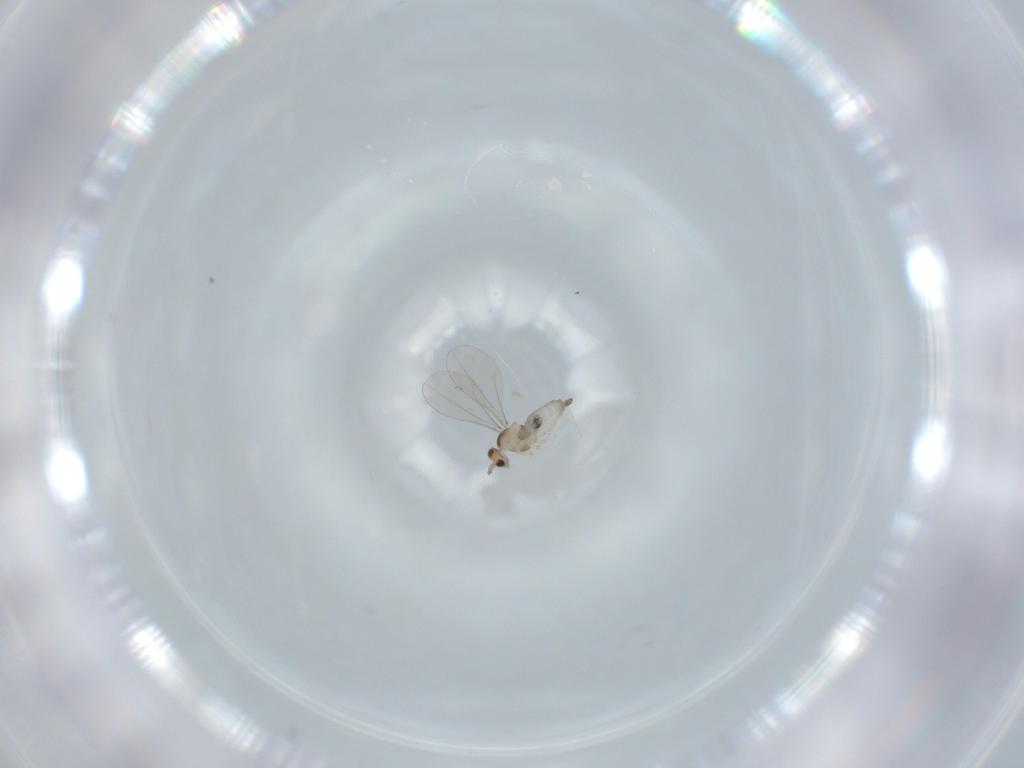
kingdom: Animalia
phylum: Arthropoda
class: Insecta
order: Diptera
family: Cecidomyiidae
